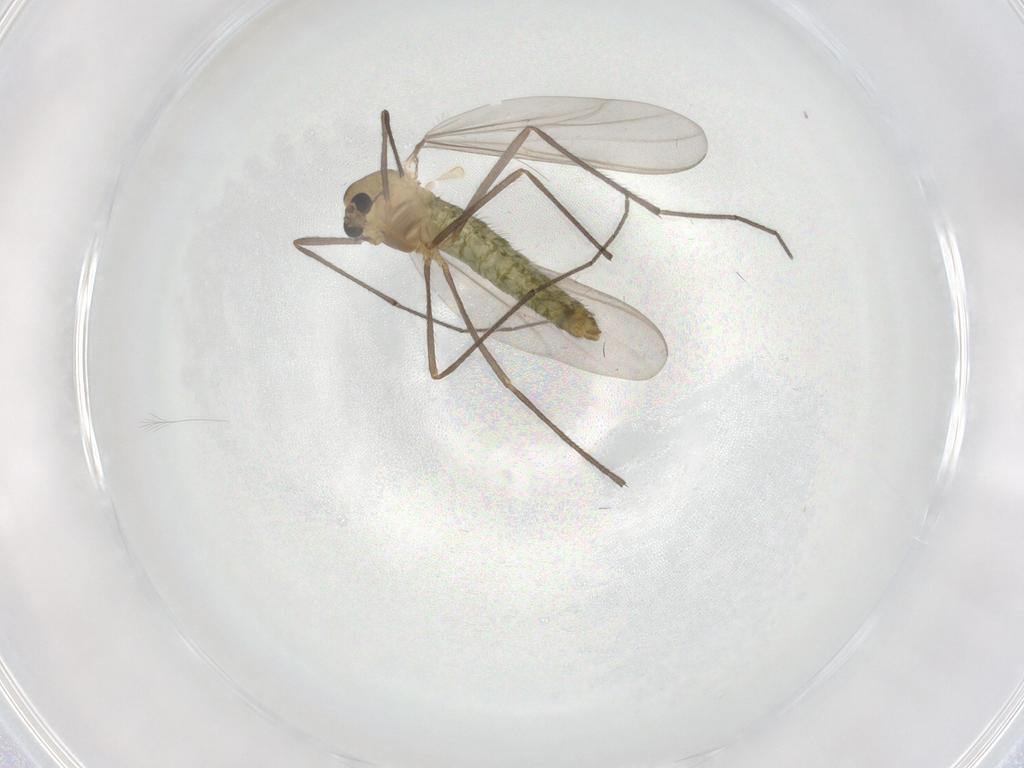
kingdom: Animalia
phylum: Arthropoda
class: Insecta
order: Diptera
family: Chironomidae
